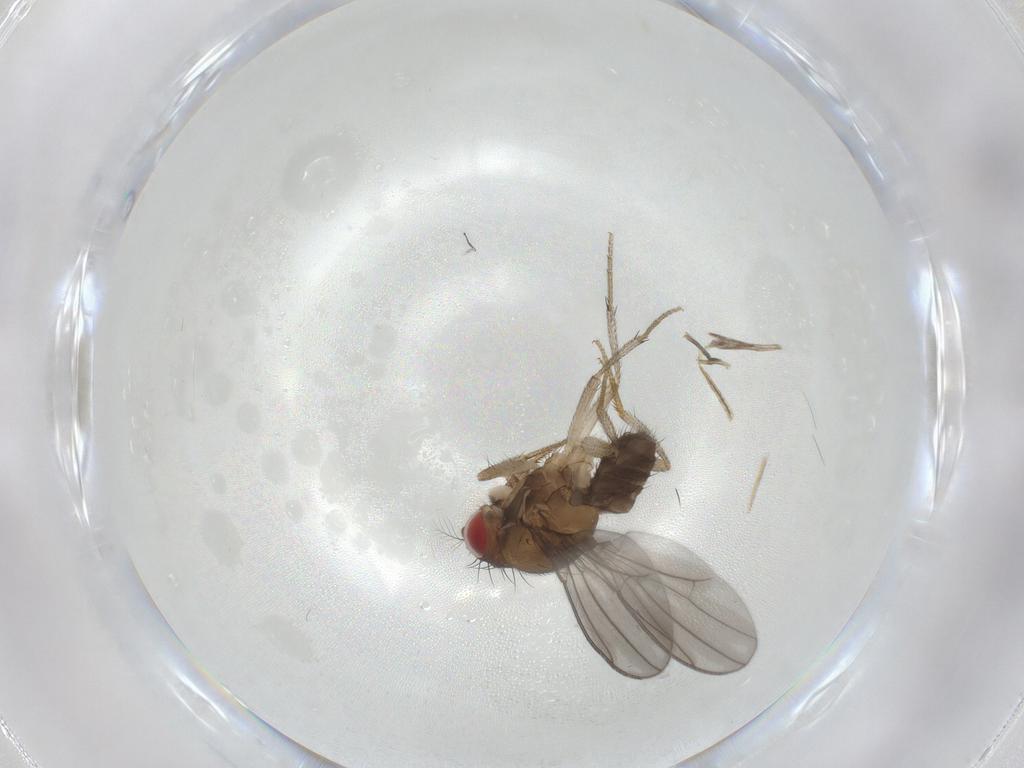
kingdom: Animalia
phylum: Arthropoda
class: Insecta
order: Diptera
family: Drosophilidae
